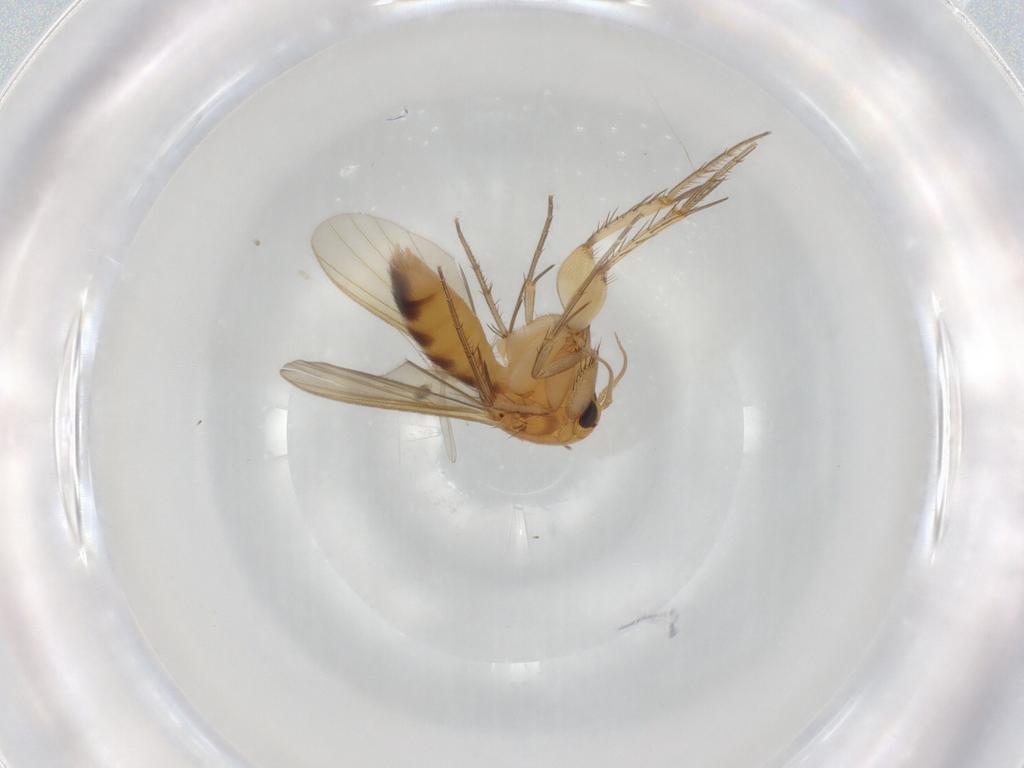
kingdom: Animalia
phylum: Arthropoda
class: Insecta
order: Diptera
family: Mycetophilidae
